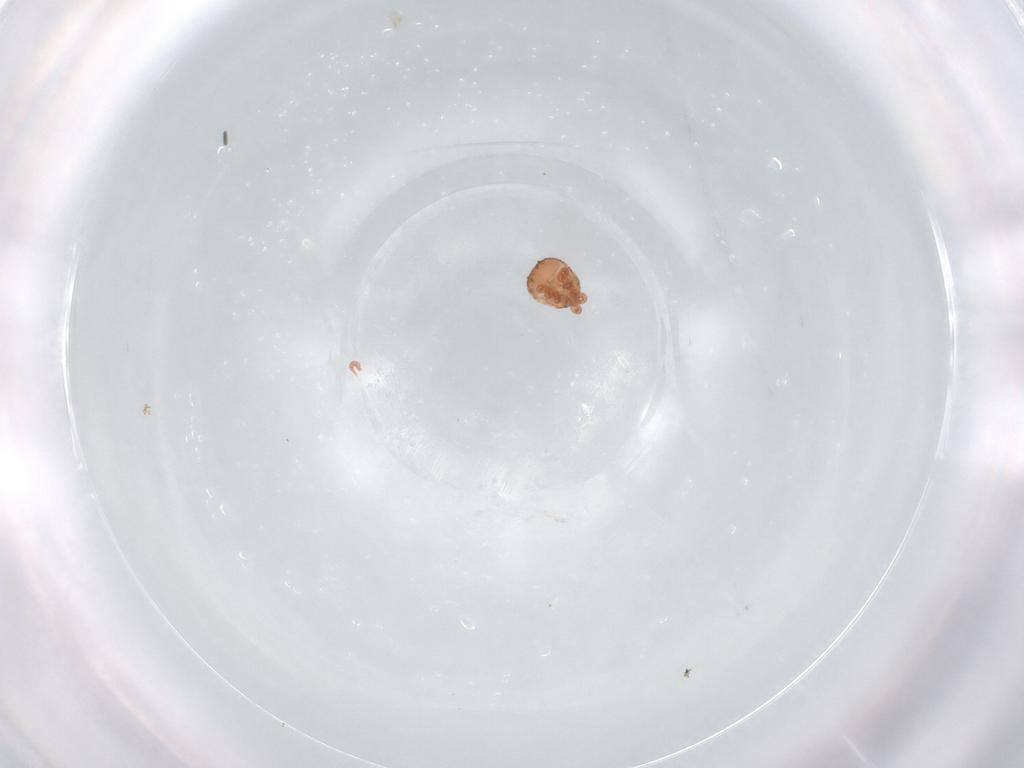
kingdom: Animalia
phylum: Arthropoda
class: Arachnida
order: Mesostigmata
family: Zerconidae
